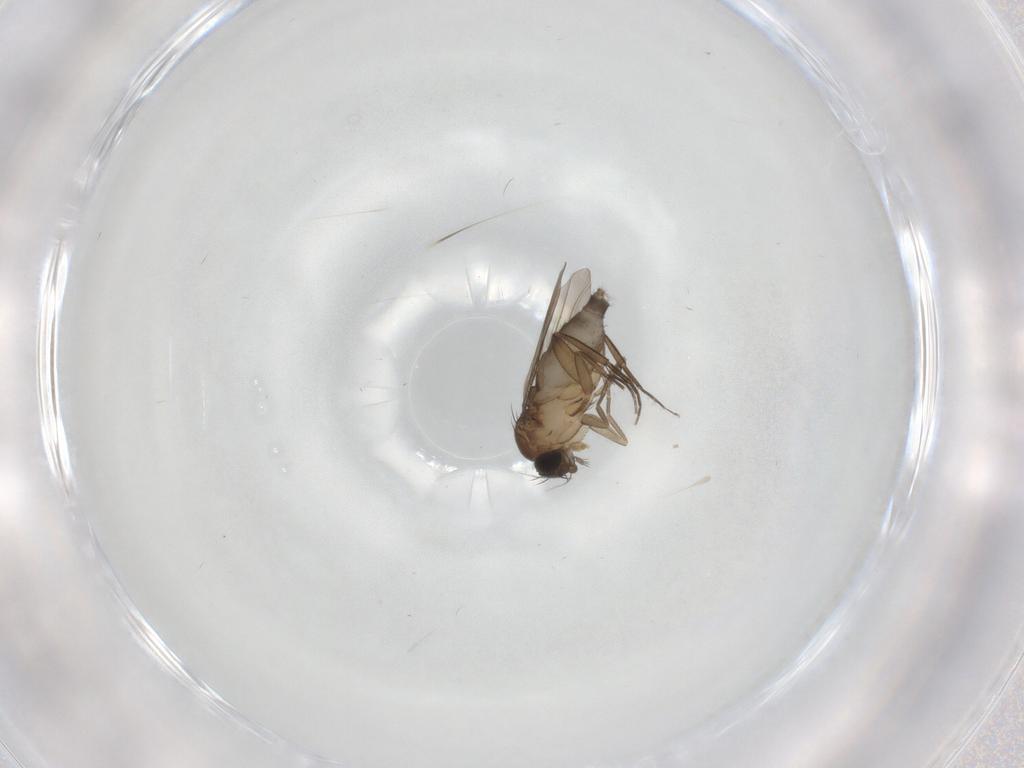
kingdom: Animalia
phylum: Arthropoda
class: Insecta
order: Diptera
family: Phoridae
